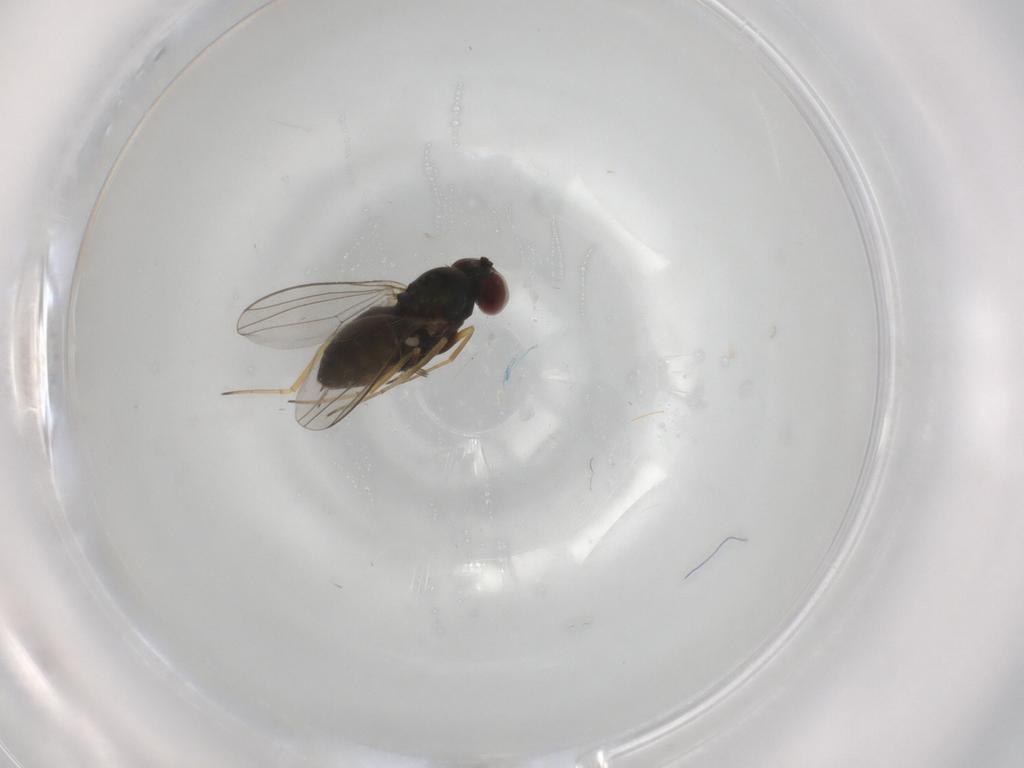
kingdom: Animalia
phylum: Arthropoda
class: Insecta
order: Diptera
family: Dolichopodidae
